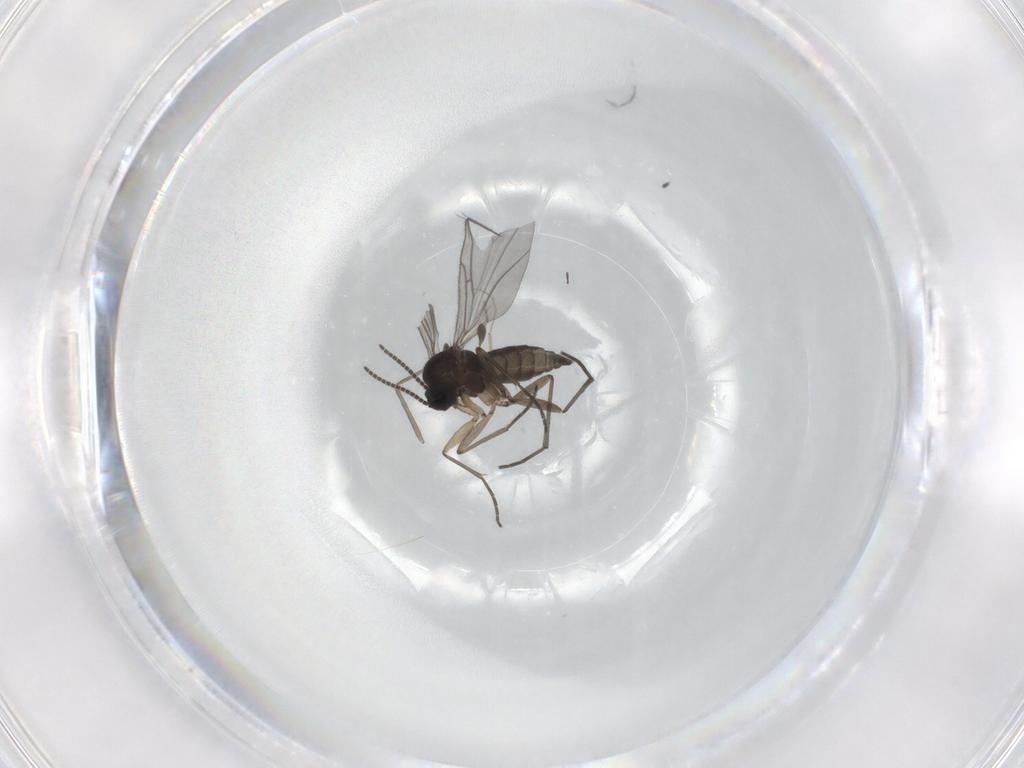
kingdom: Animalia
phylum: Arthropoda
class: Insecta
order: Diptera
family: Sciaridae
